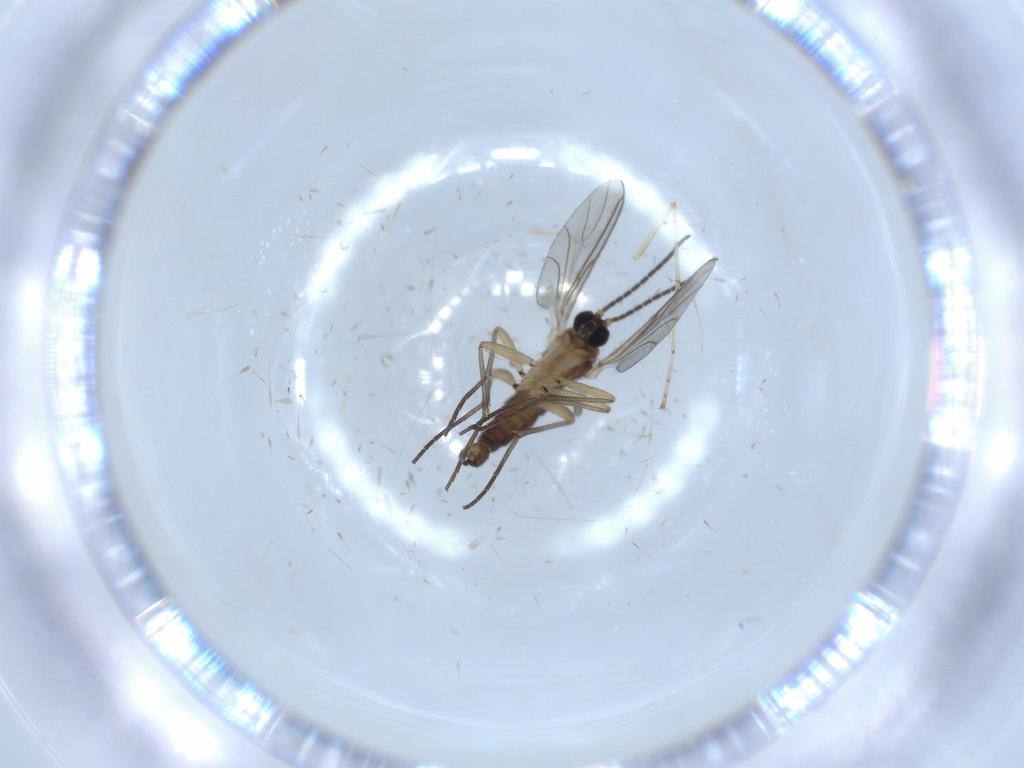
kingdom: Animalia
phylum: Arthropoda
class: Insecta
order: Diptera
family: Sciaridae
